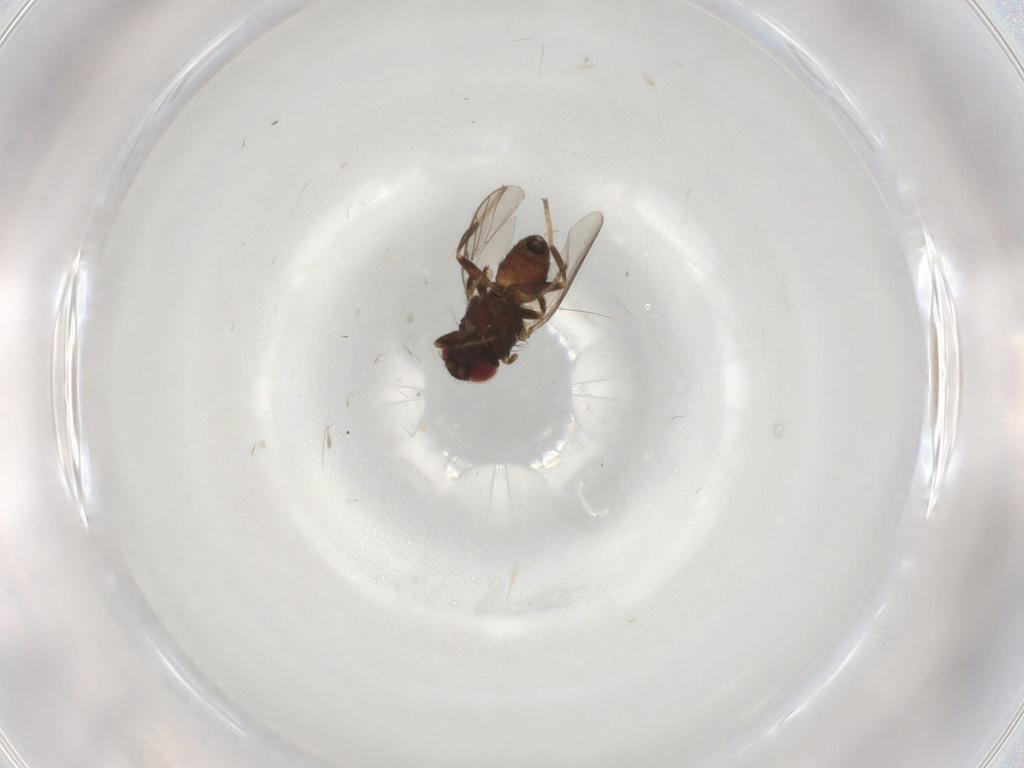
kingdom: Animalia
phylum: Arthropoda
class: Insecta
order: Diptera
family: Chloropidae
